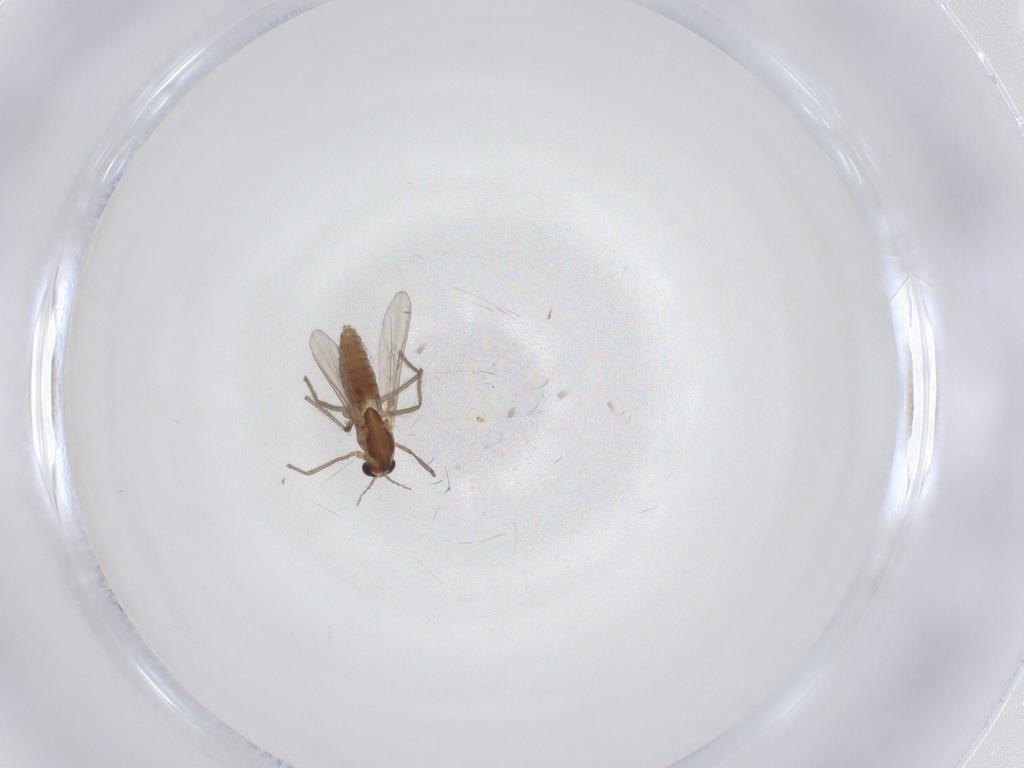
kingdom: Animalia
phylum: Arthropoda
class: Insecta
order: Diptera
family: Chironomidae
